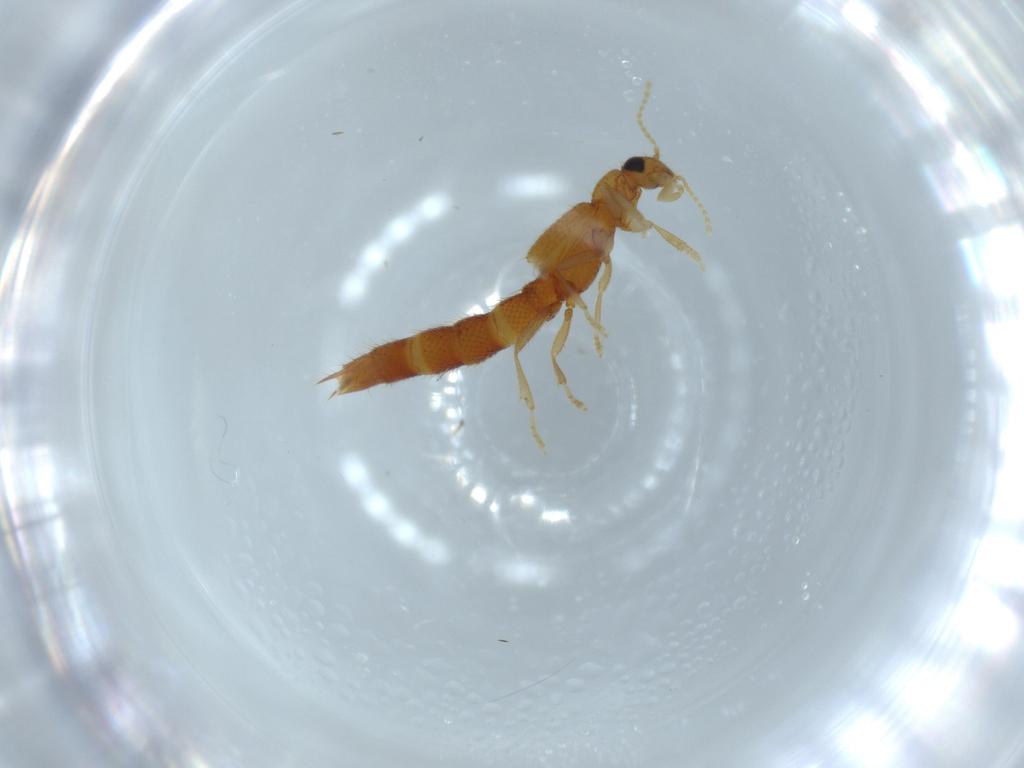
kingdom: Animalia
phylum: Arthropoda
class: Insecta
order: Coleoptera
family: Staphylinidae
